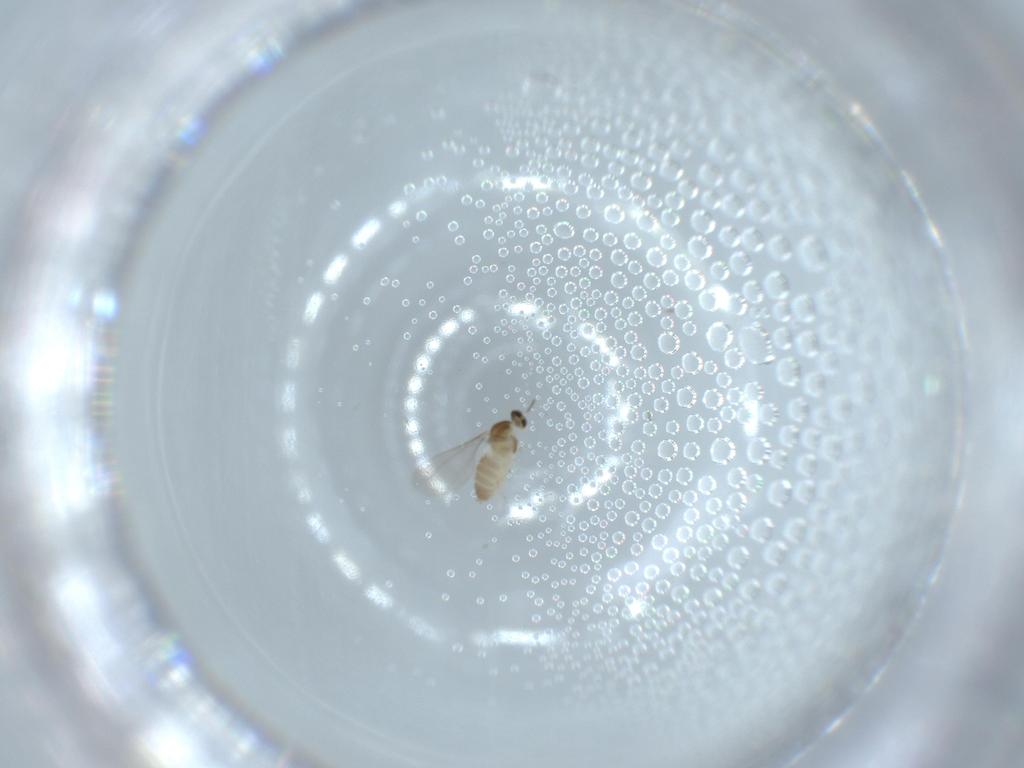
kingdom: Animalia
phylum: Arthropoda
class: Insecta
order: Diptera
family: Cecidomyiidae
